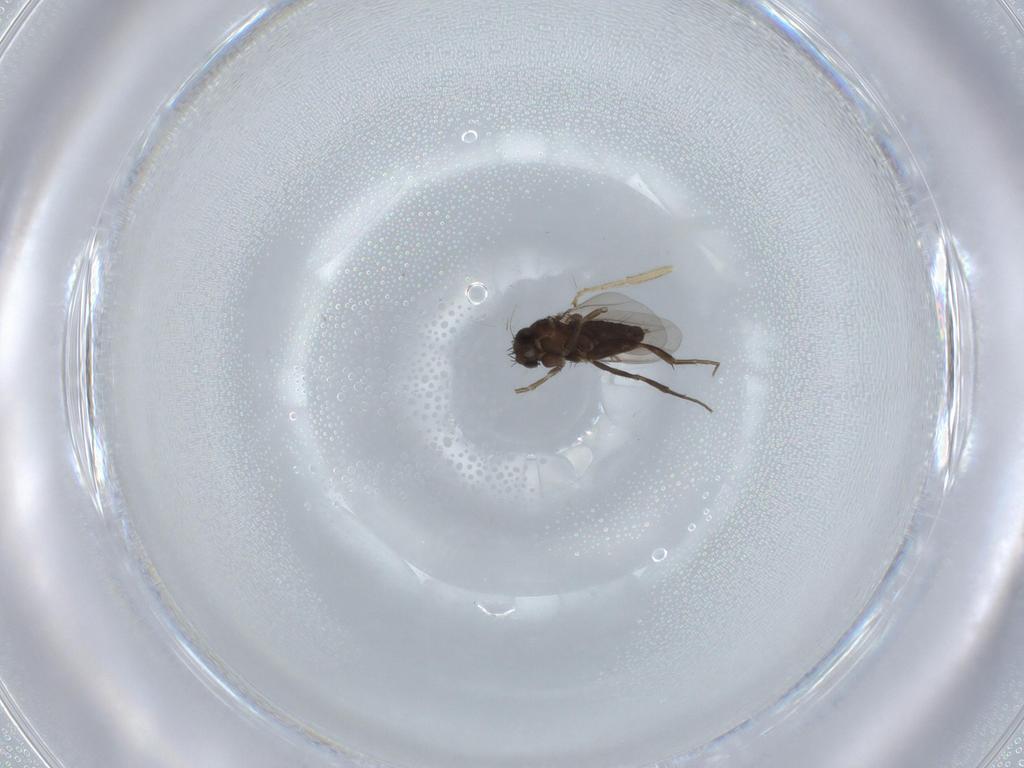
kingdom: Animalia
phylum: Arthropoda
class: Insecta
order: Diptera
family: Hybotidae
